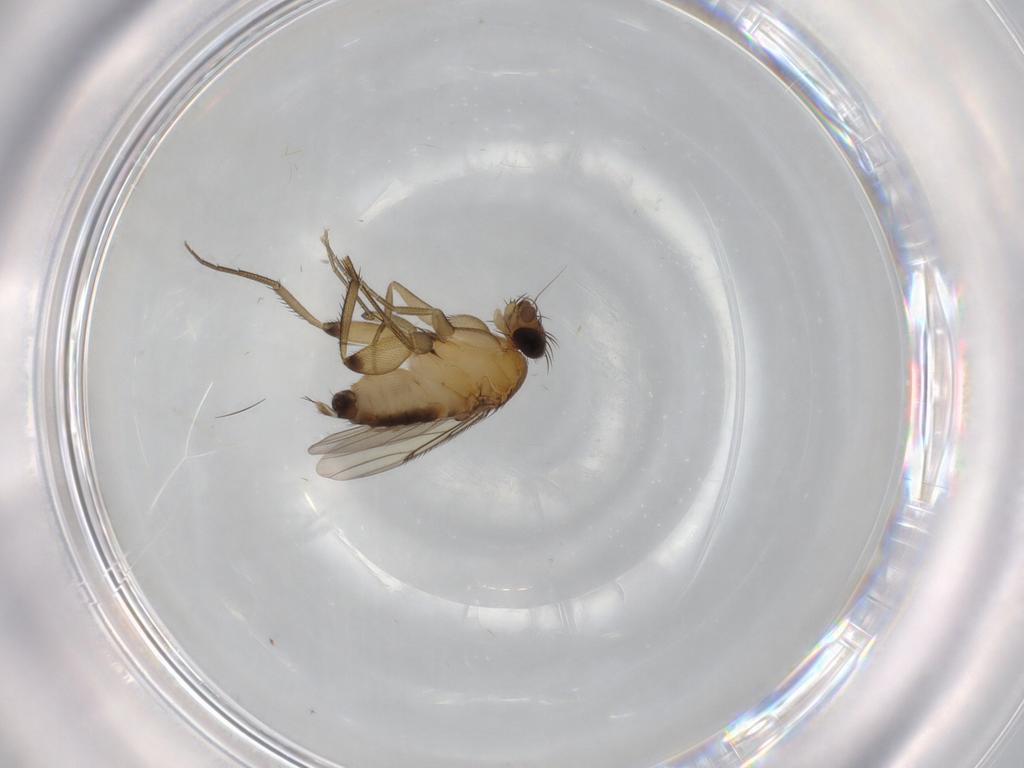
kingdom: Animalia
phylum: Arthropoda
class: Insecta
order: Diptera
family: Phoridae
